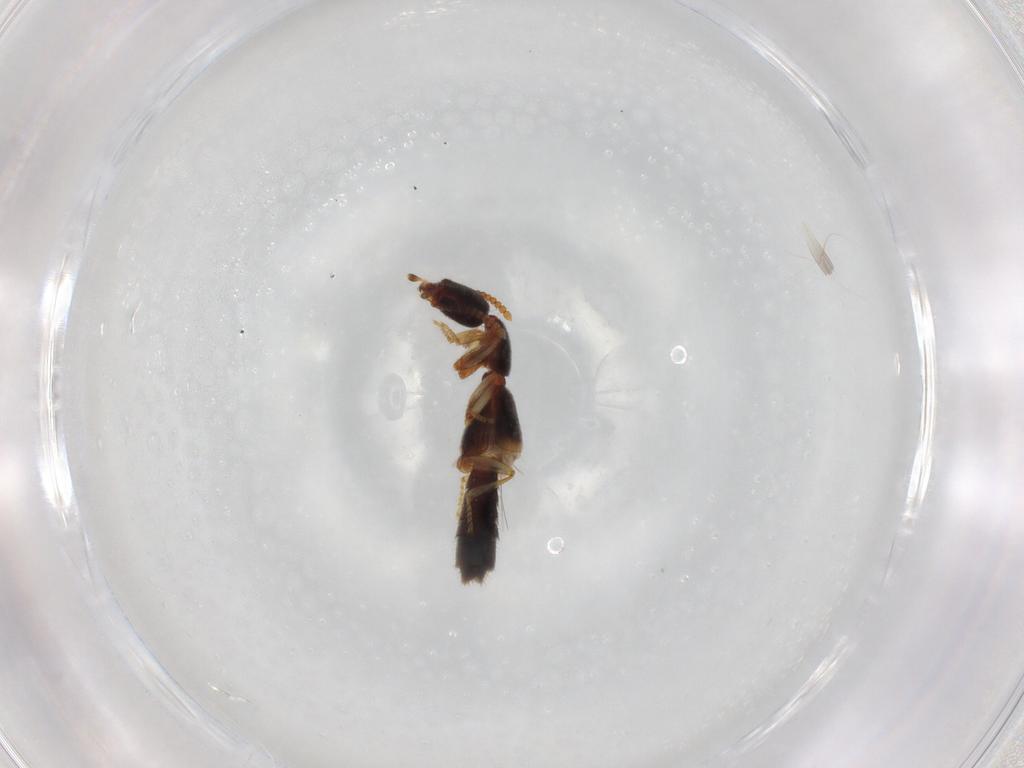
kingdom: Animalia
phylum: Arthropoda
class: Insecta
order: Coleoptera
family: Staphylinidae
